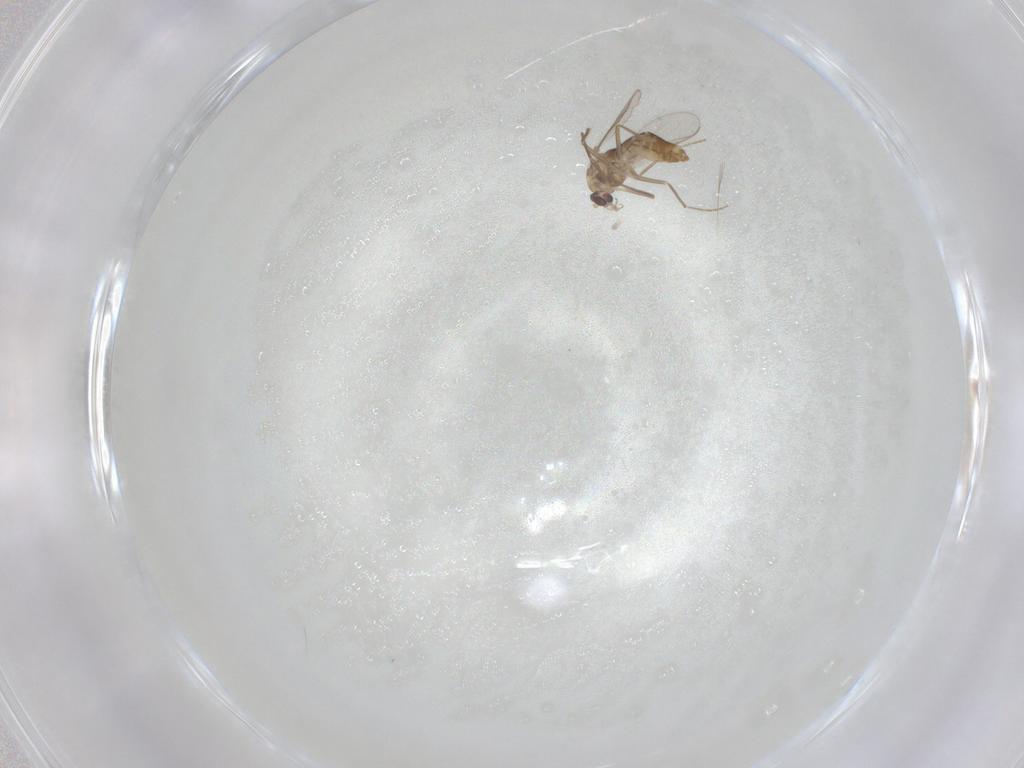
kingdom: Animalia
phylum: Arthropoda
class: Insecta
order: Diptera
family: Chironomidae
